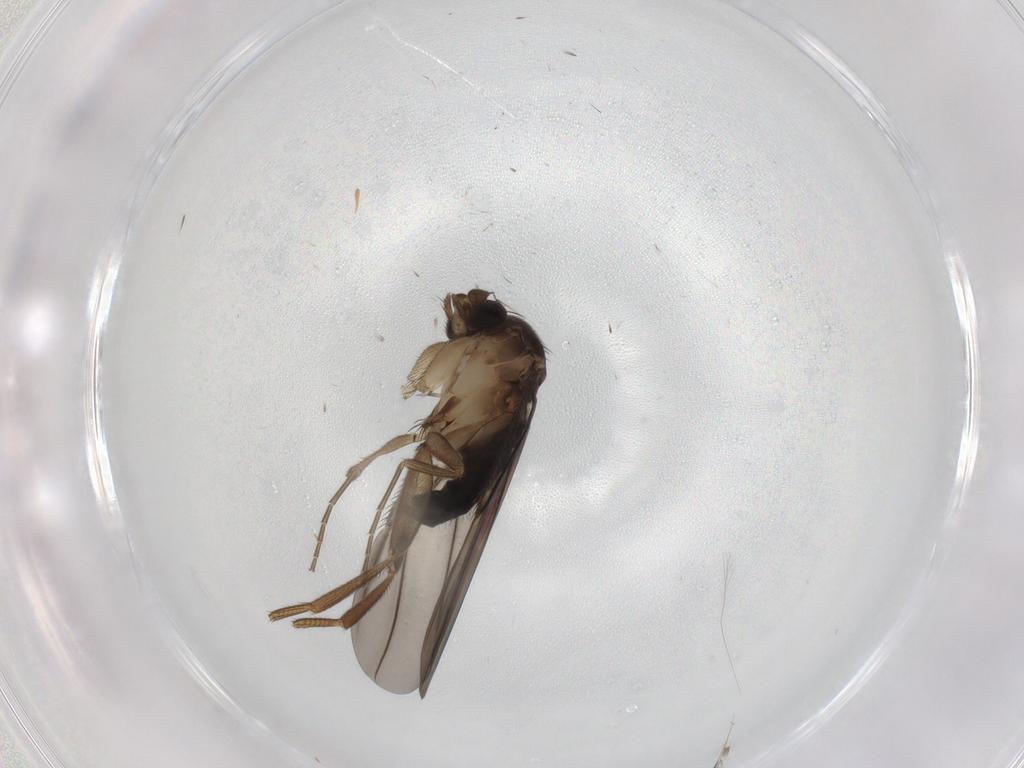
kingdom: Animalia
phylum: Arthropoda
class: Insecta
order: Diptera
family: Phoridae
